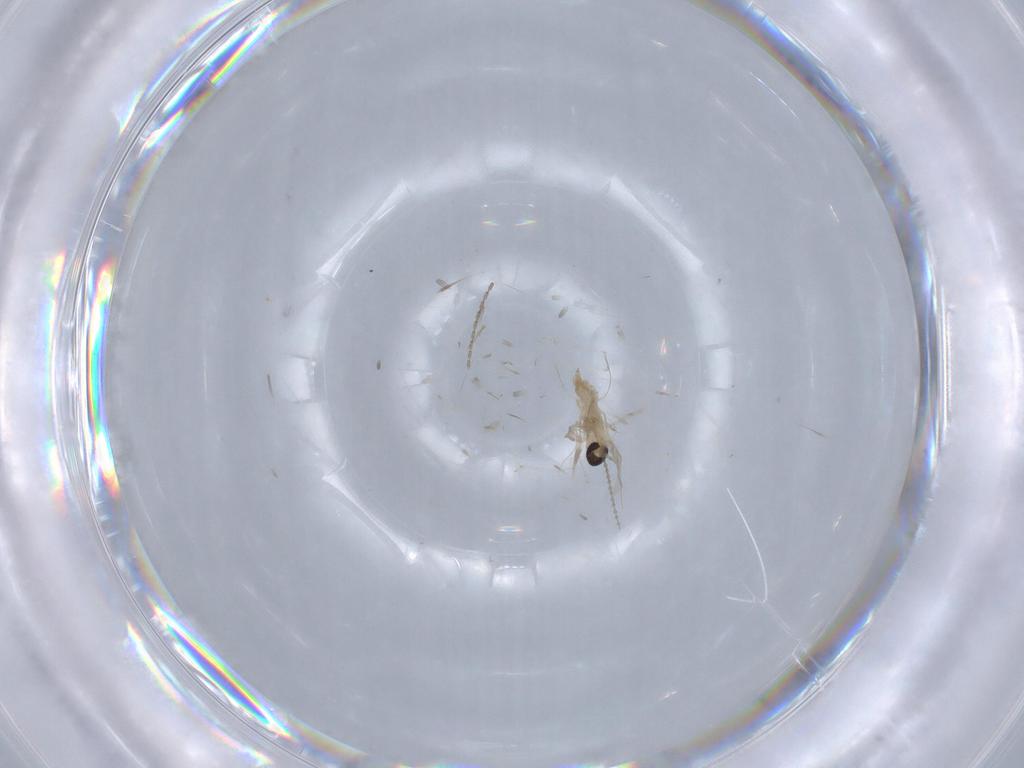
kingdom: Animalia
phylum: Arthropoda
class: Insecta
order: Diptera
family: Cecidomyiidae
